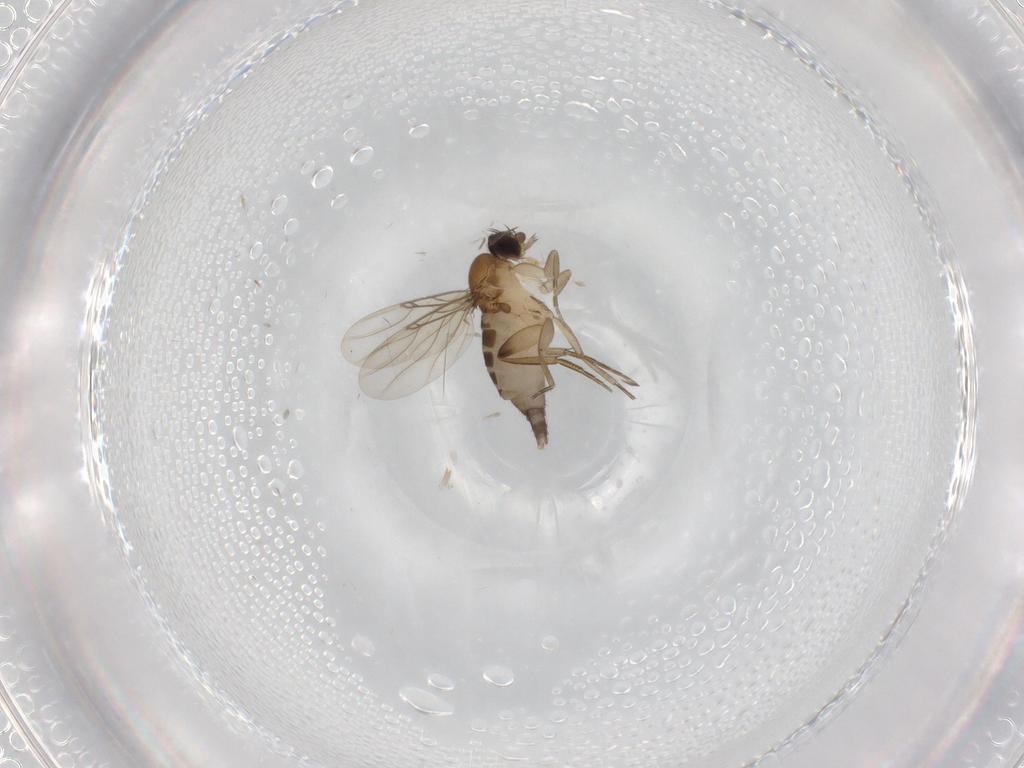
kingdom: Animalia
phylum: Arthropoda
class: Insecta
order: Diptera
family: Phoridae
